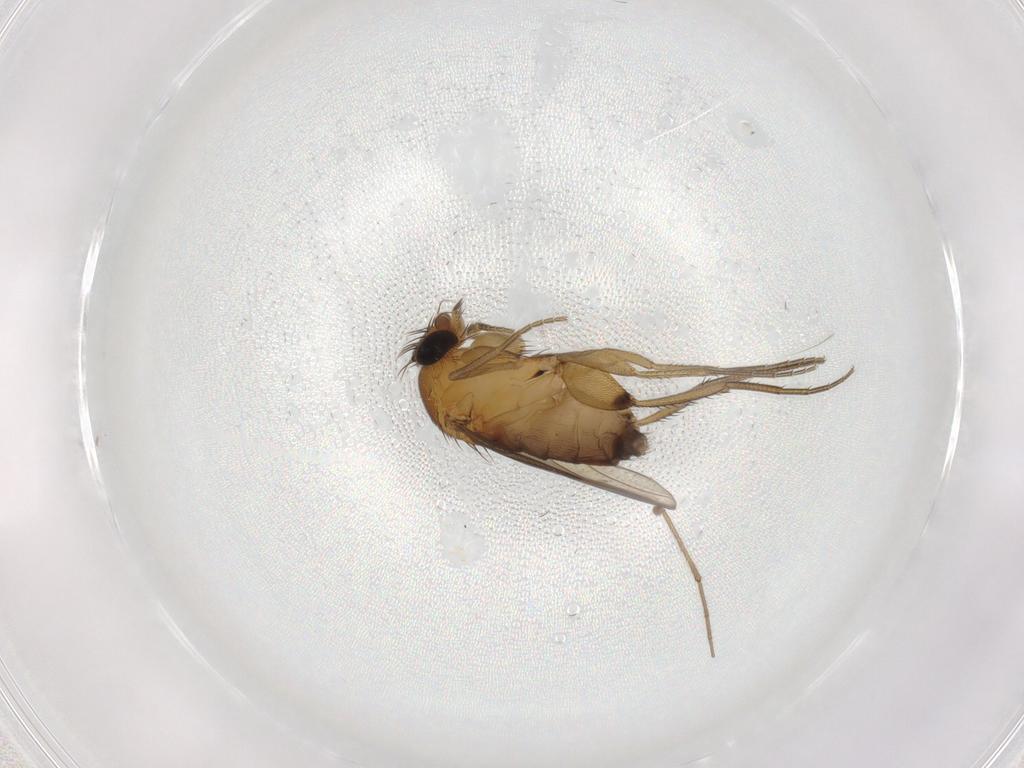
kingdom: Animalia
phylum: Arthropoda
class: Insecta
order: Diptera
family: Phoridae
